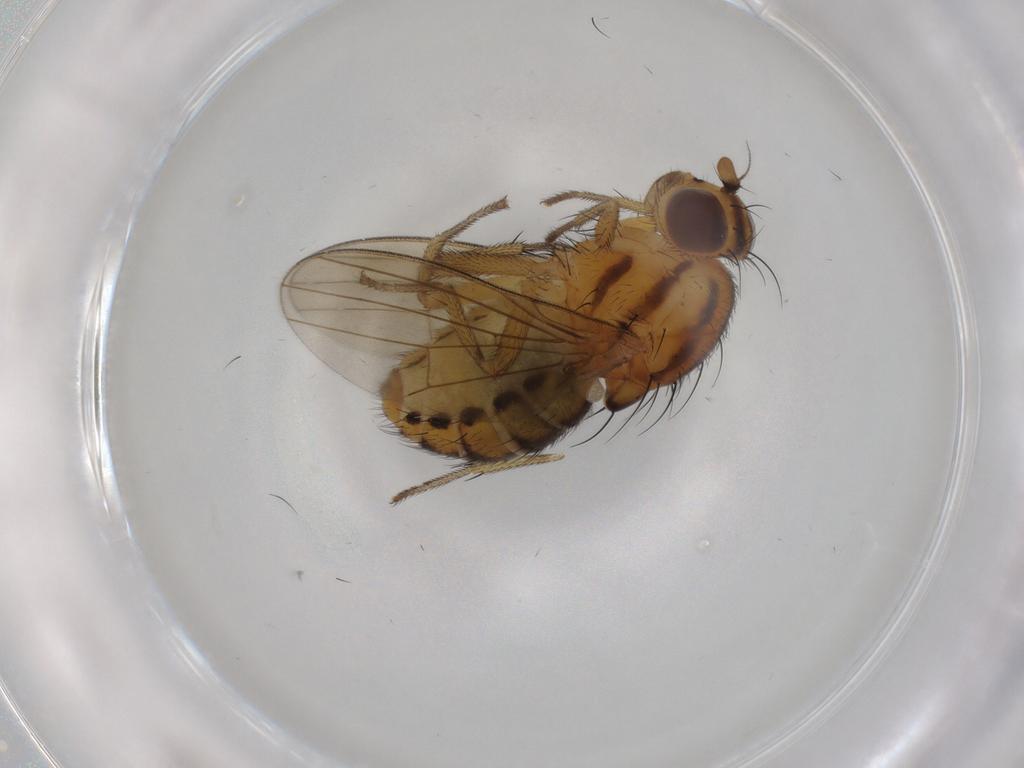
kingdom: Animalia
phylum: Arthropoda
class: Insecta
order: Diptera
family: Lauxaniidae
